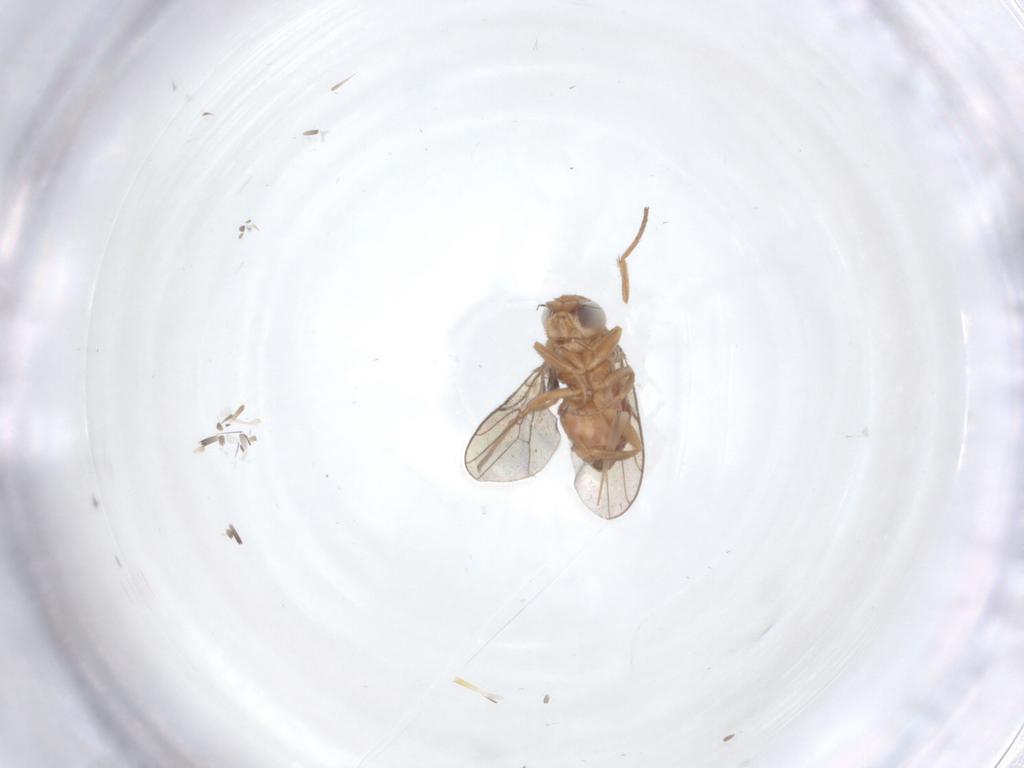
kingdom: Animalia
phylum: Arthropoda
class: Insecta
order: Diptera
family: Chloropidae
